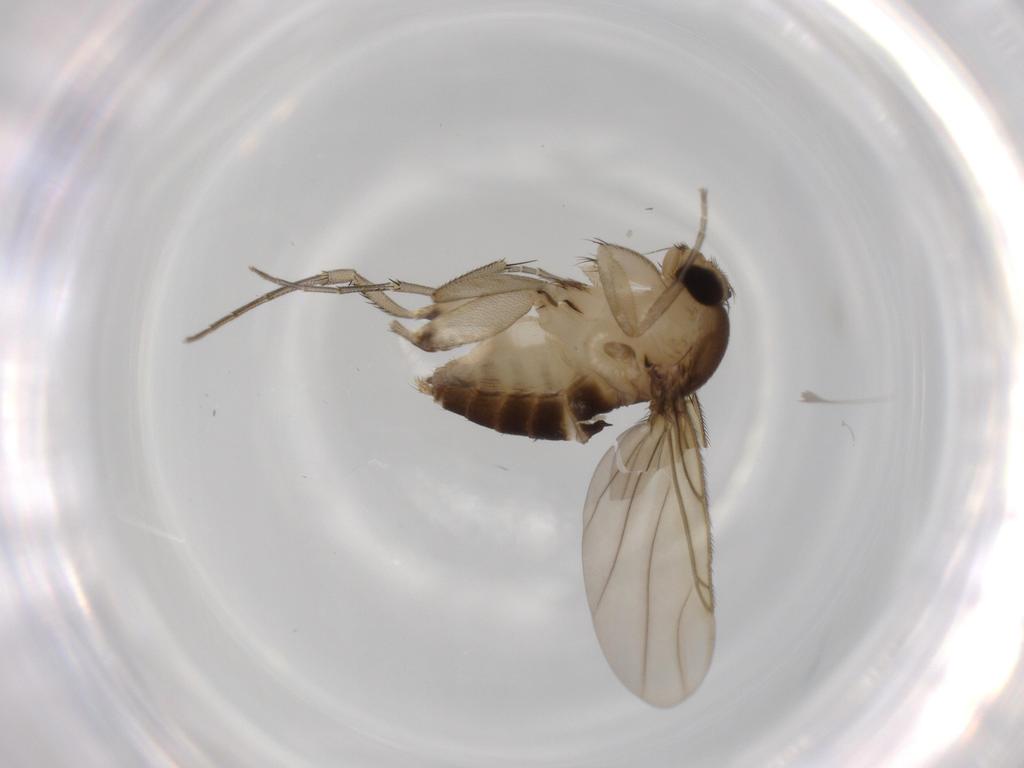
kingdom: Animalia
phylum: Arthropoda
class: Insecta
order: Diptera
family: Phoridae
